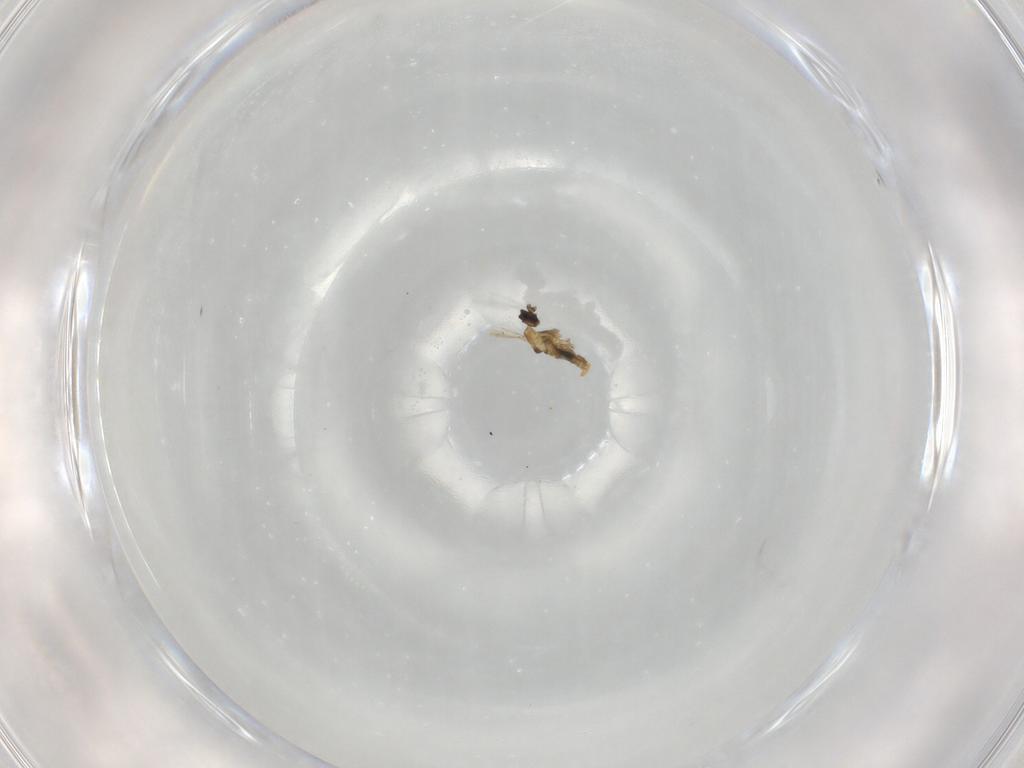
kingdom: Animalia
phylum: Arthropoda
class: Insecta
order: Diptera
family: Cecidomyiidae
